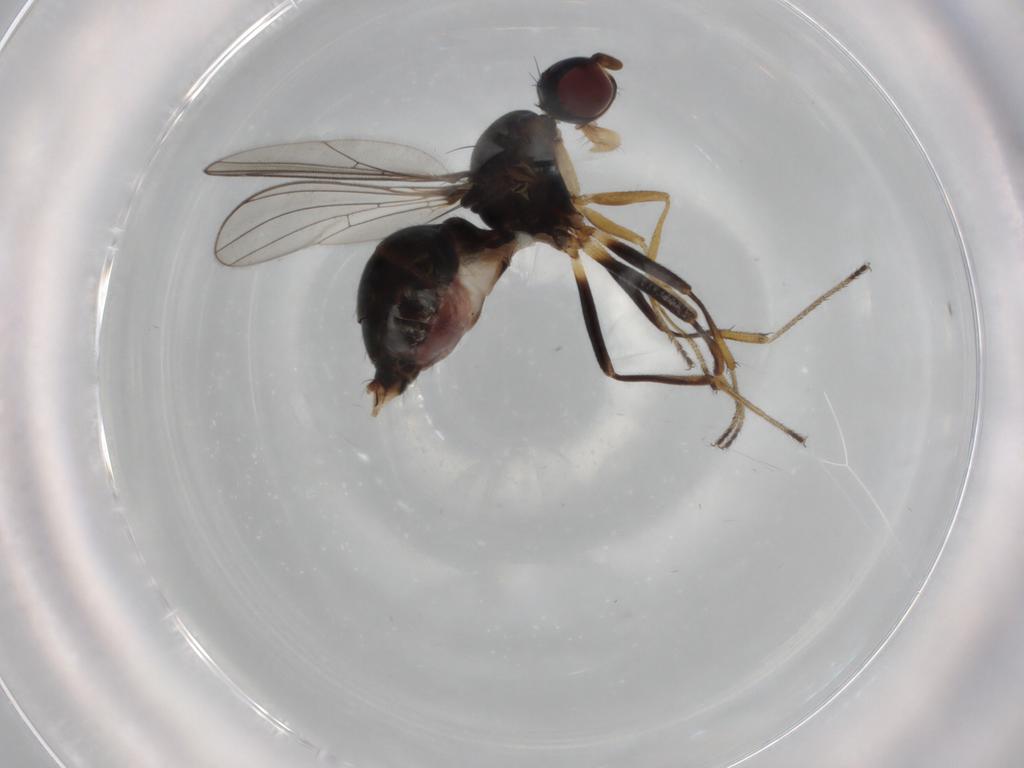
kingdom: Animalia
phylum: Arthropoda
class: Insecta
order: Diptera
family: Sepsidae
